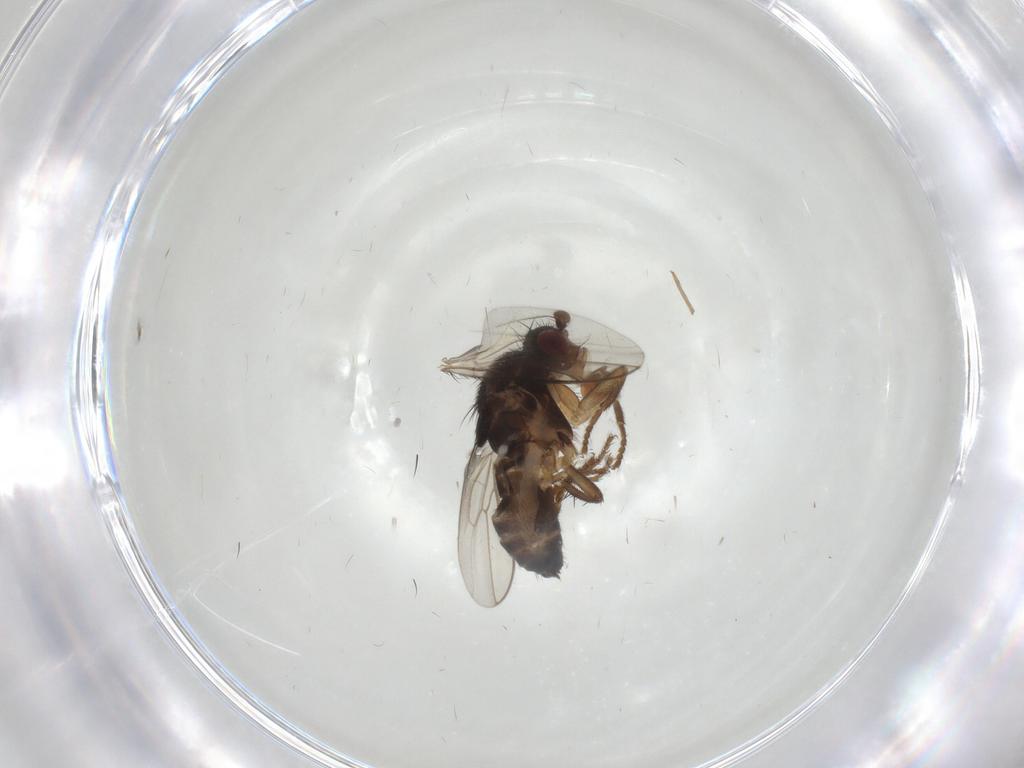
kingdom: Animalia
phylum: Arthropoda
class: Insecta
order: Diptera
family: Sphaeroceridae
